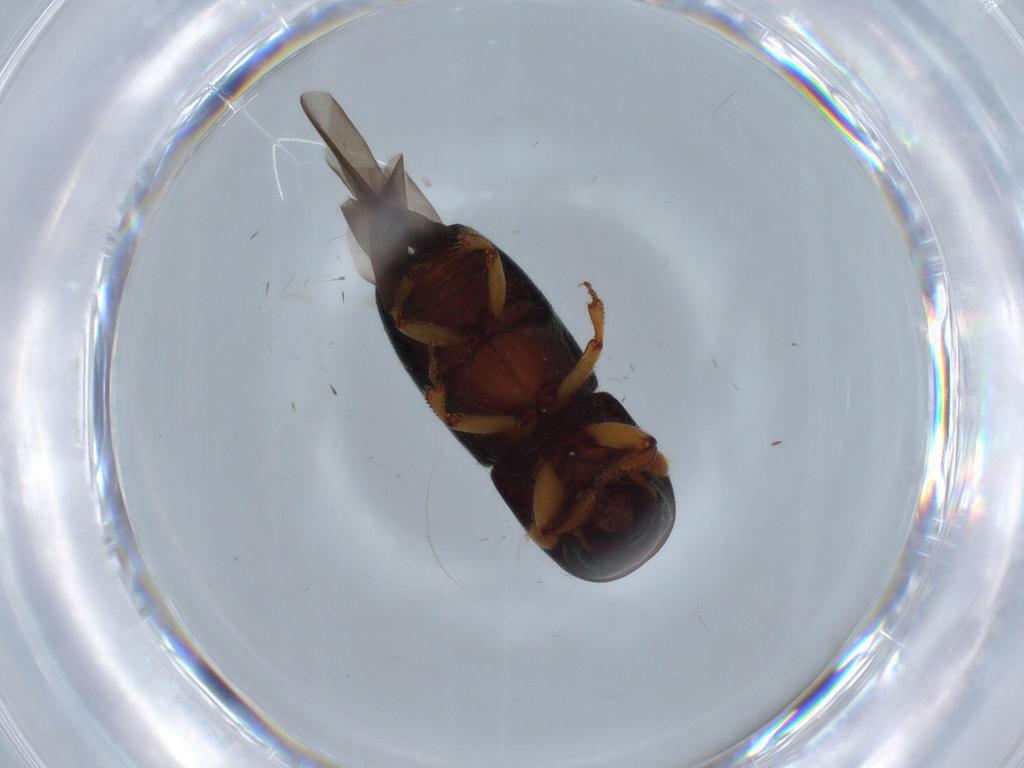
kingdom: Animalia
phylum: Arthropoda
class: Insecta
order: Coleoptera
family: Curculionidae
